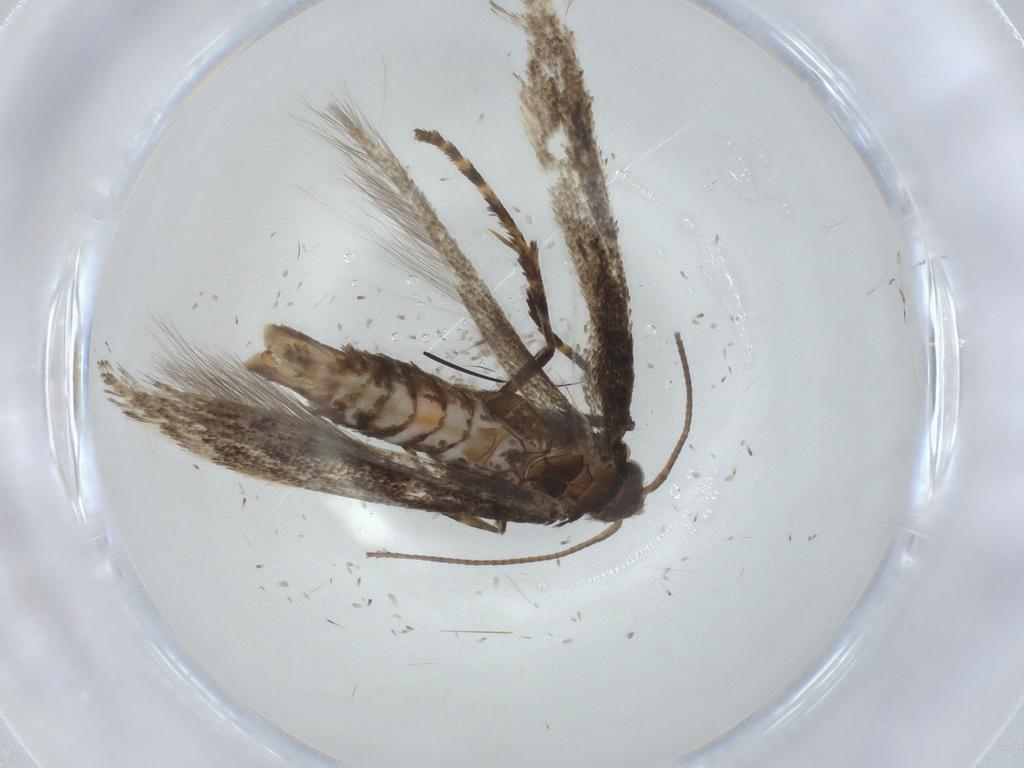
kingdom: Animalia
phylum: Arthropoda
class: Insecta
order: Lepidoptera
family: Gracillariidae
